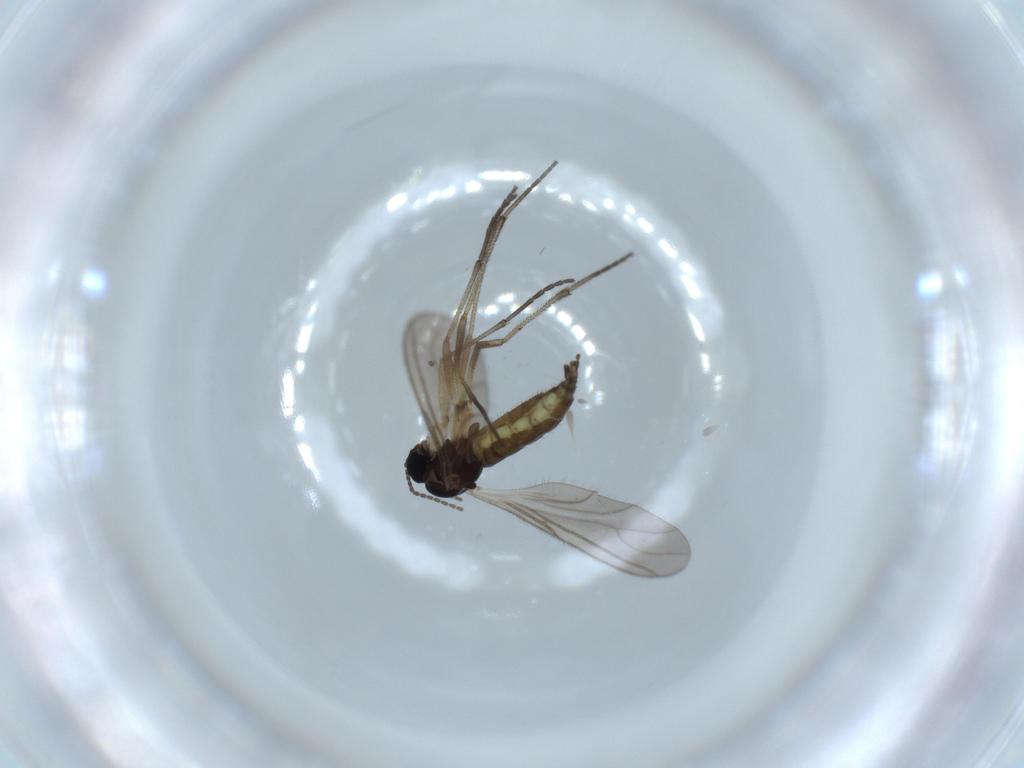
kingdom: Animalia
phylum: Arthropoda
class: Insecta
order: Diptera
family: Sciaridae
